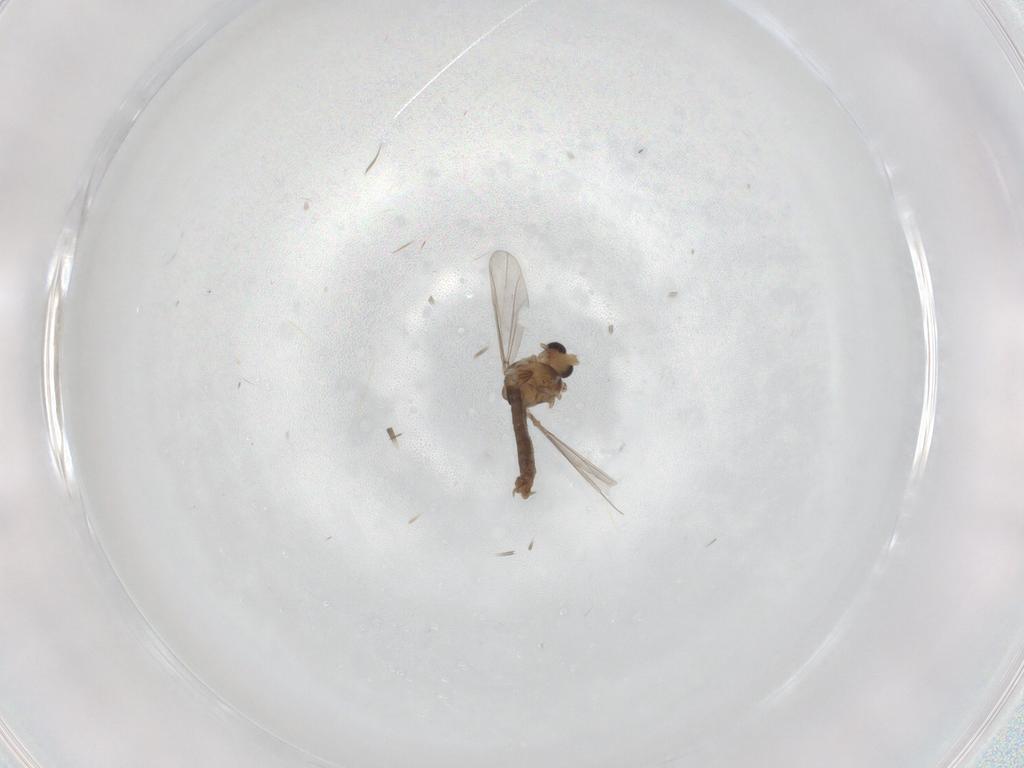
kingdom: Animalia
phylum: Arthropoda
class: Insecta
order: Diptera
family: Chironomidae
